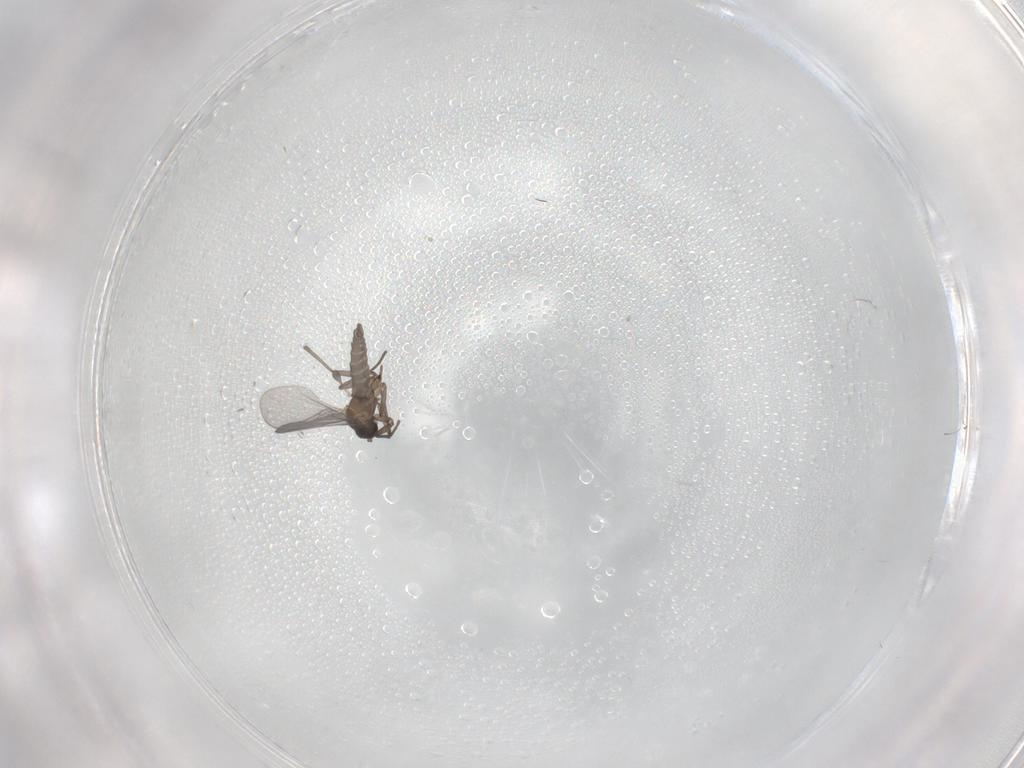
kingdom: Animalia
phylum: Arthropoda
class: Insecta
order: Diptera
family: Sciaridae
